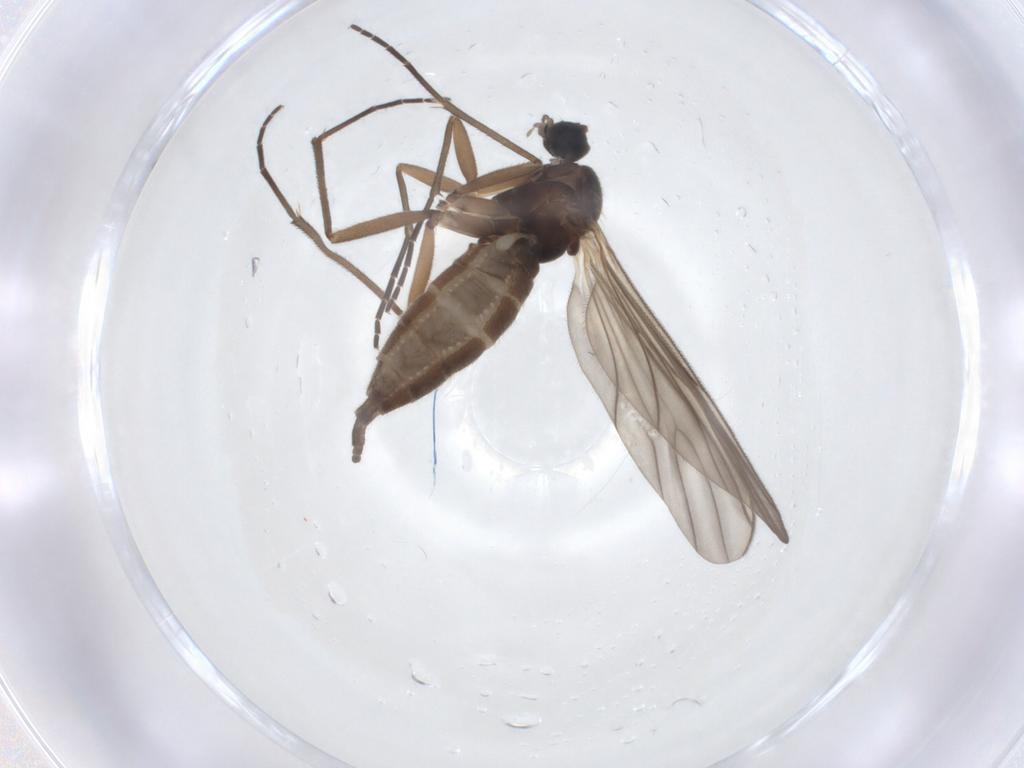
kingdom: Animalia
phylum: Arthropoda
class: Insecta
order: Diptera
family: Sciaridae
